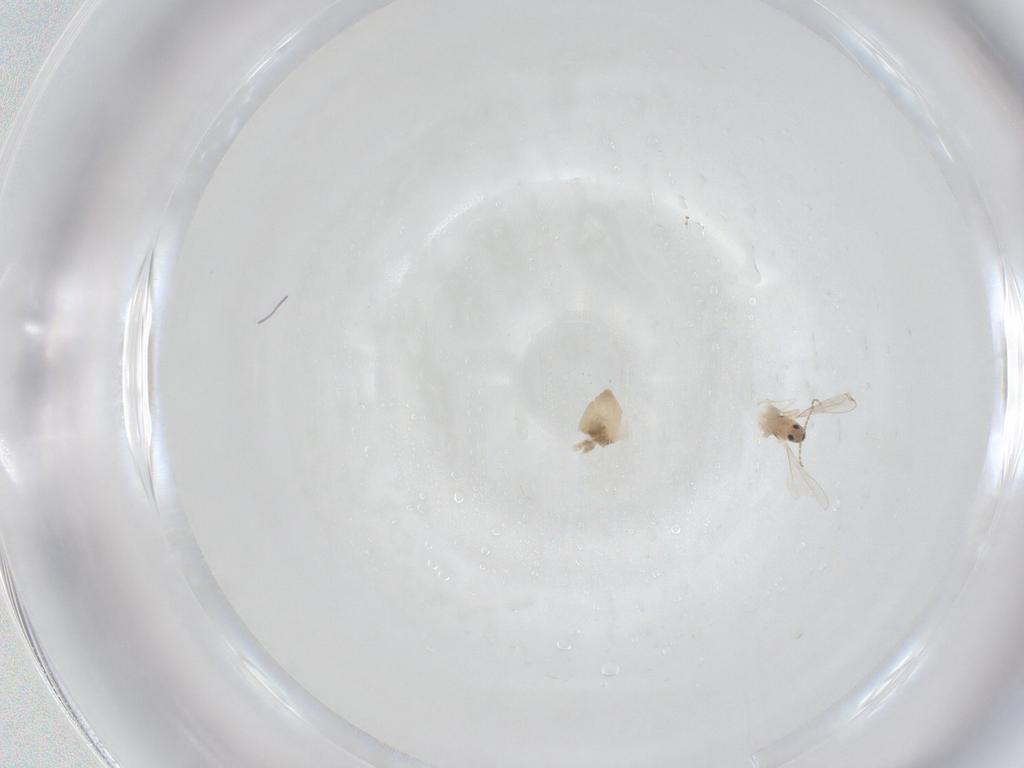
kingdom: Animalia
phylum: Arthropoda
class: Insecta
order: Diptera
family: Cecidomyiidae
